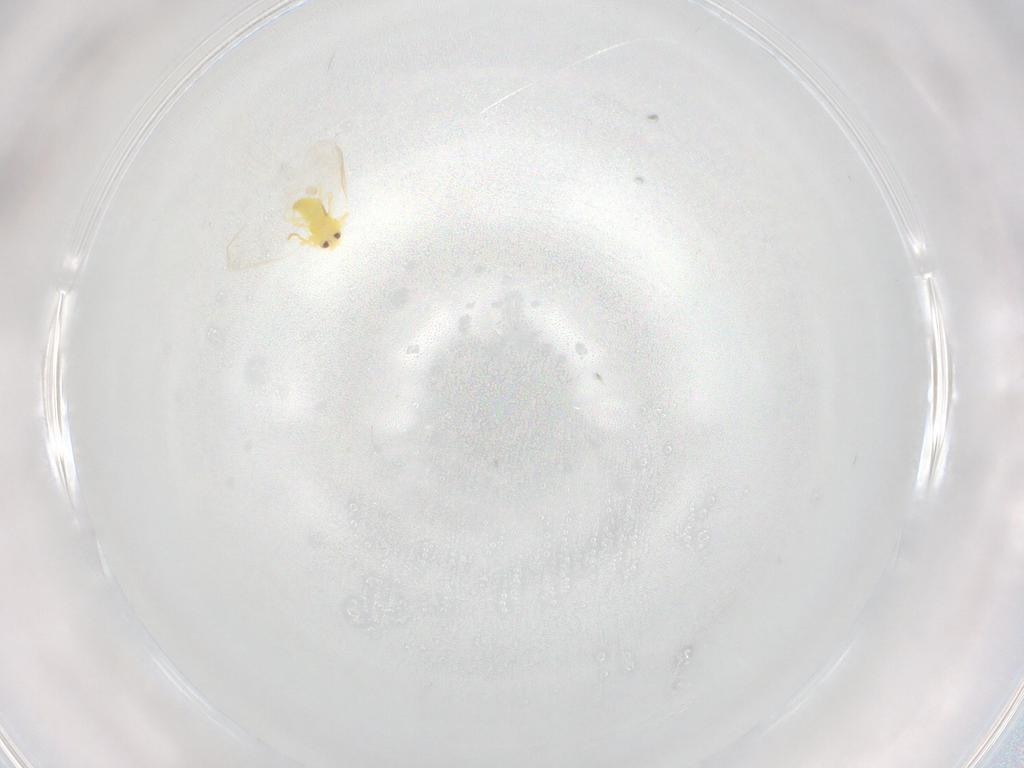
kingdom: Animalia
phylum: Arthropoda
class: Insecta
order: Hemiptera
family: Aleyrodidae
